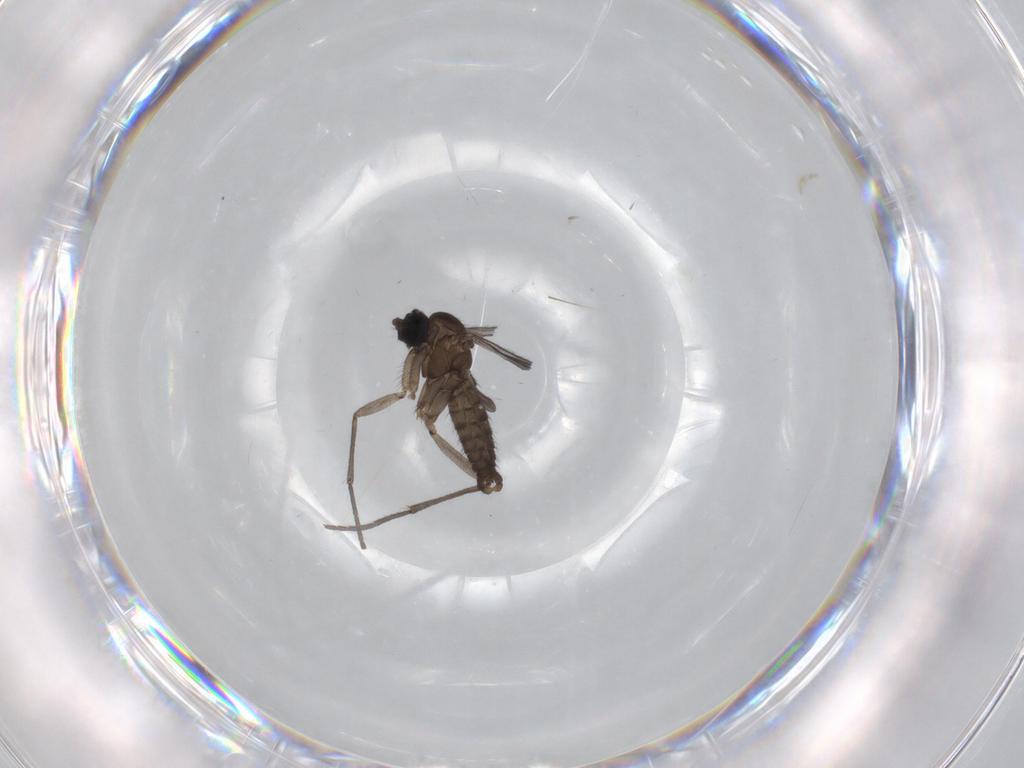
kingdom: Animalia
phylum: Arthropoda
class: Insecta
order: Diptera
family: Sciaridae
